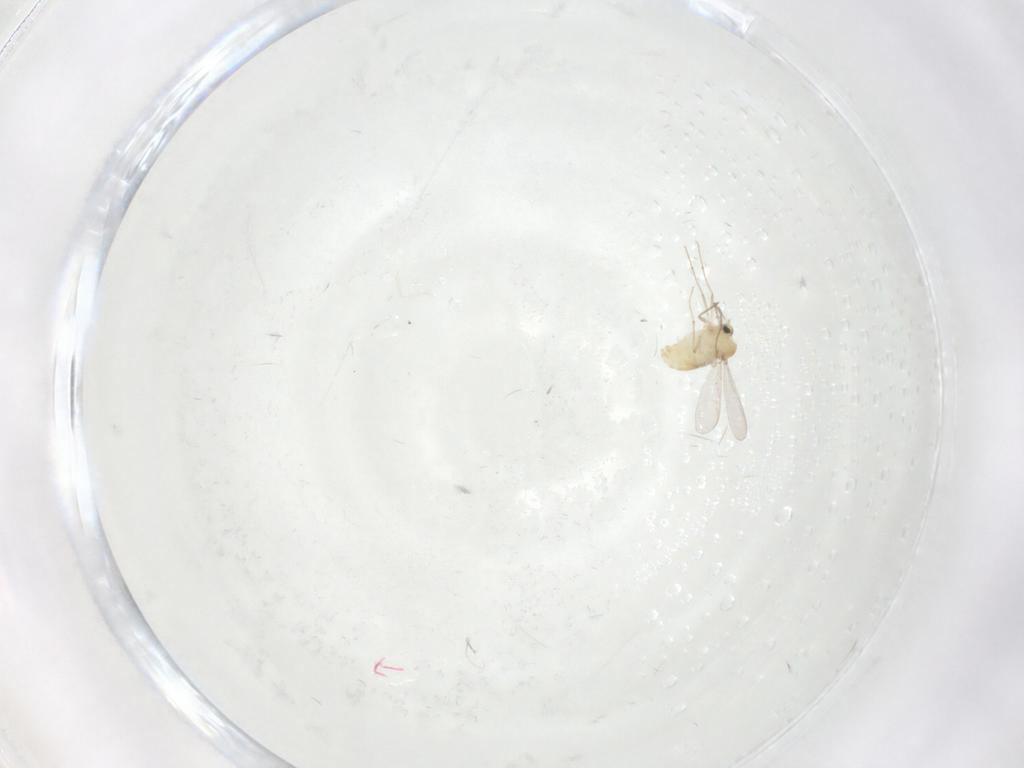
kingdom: Animalia
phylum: Arthropoda
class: Insecta
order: Diptera
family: Chironomidae
